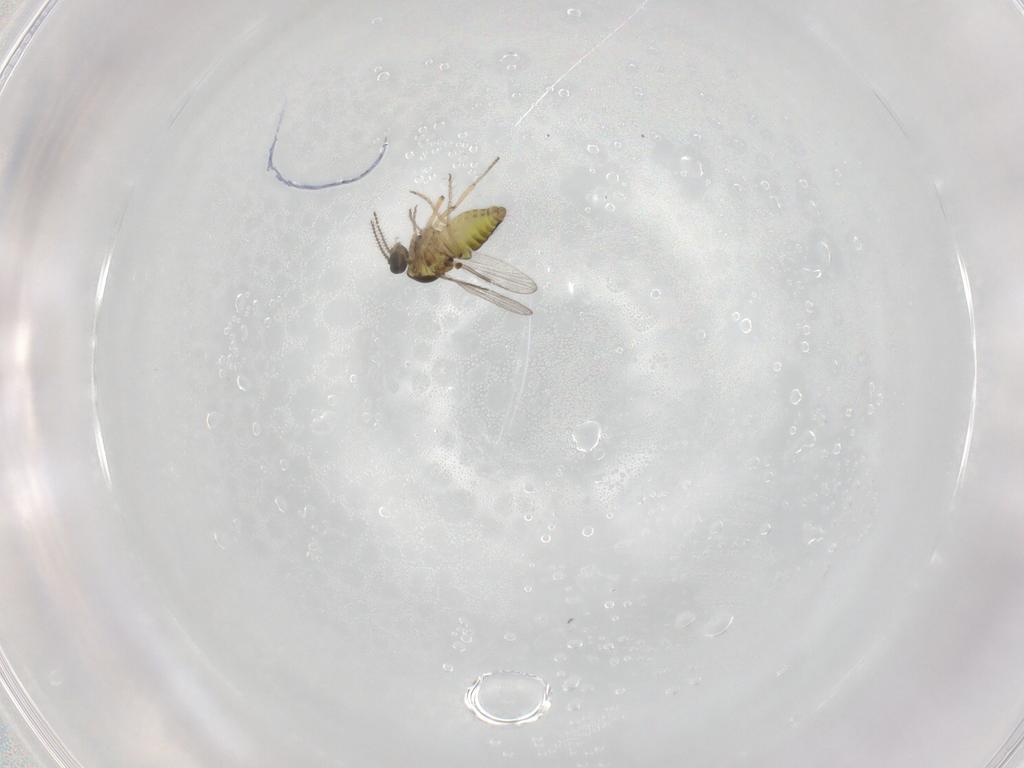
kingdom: Animalia
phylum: Arthropoda
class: Insecta
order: Diptera
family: Ceratopogonidae
